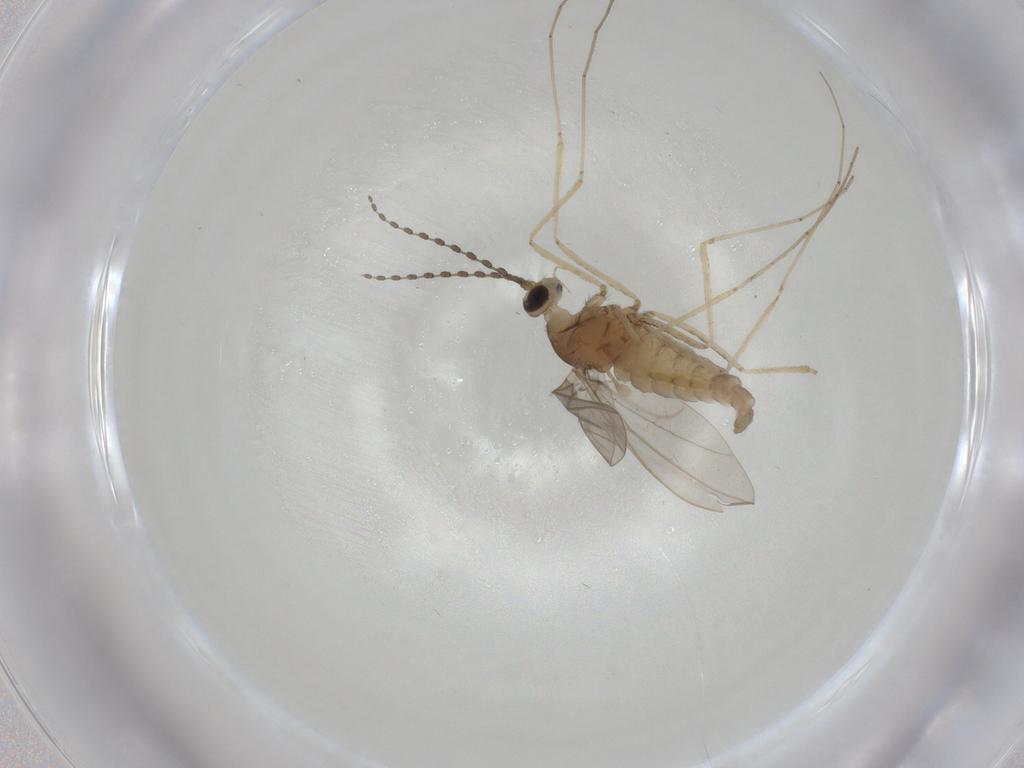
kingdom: Animalia
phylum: Arthropoda
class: Insecta
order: Diptera
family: Cecidomyiidae
